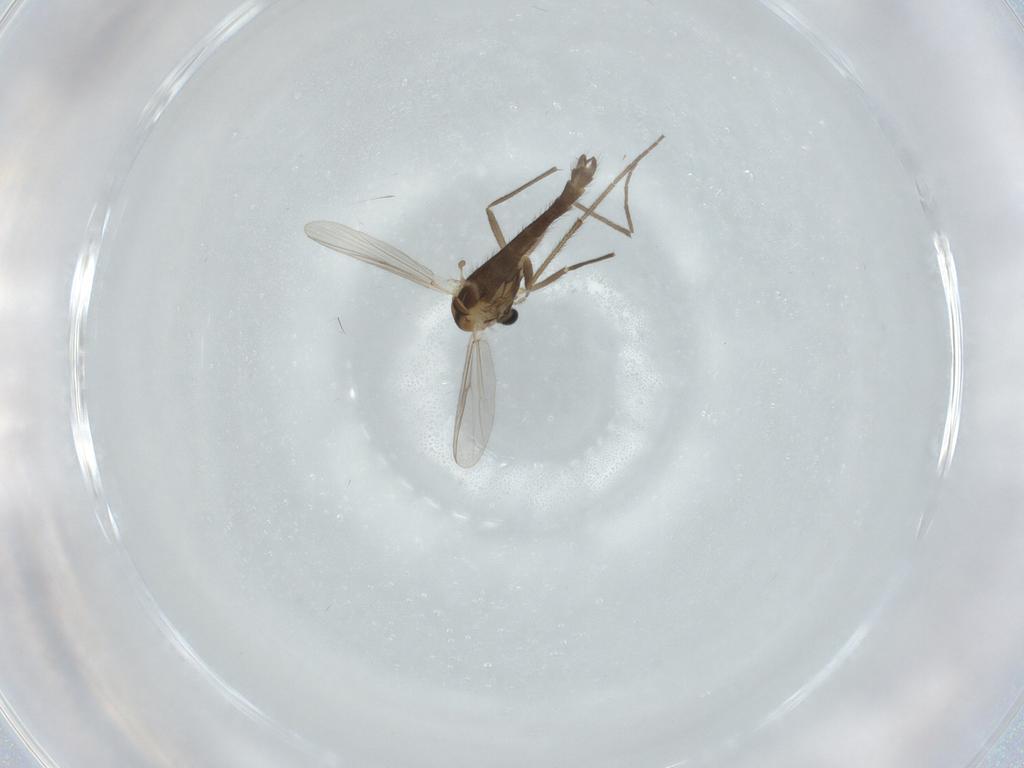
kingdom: Animalia
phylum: Arthropoda
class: Insecta
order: Diptera
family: Chironomidae
